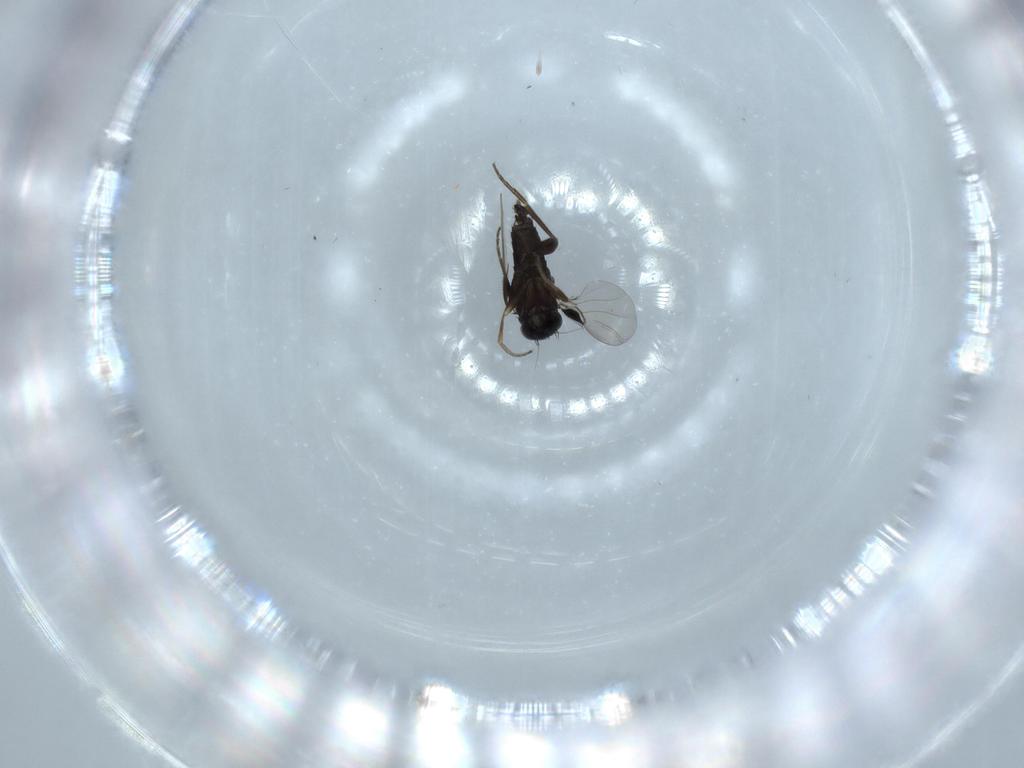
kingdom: Animalia
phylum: Arthropoda
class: Insecta
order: Diptera
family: Phoridae
